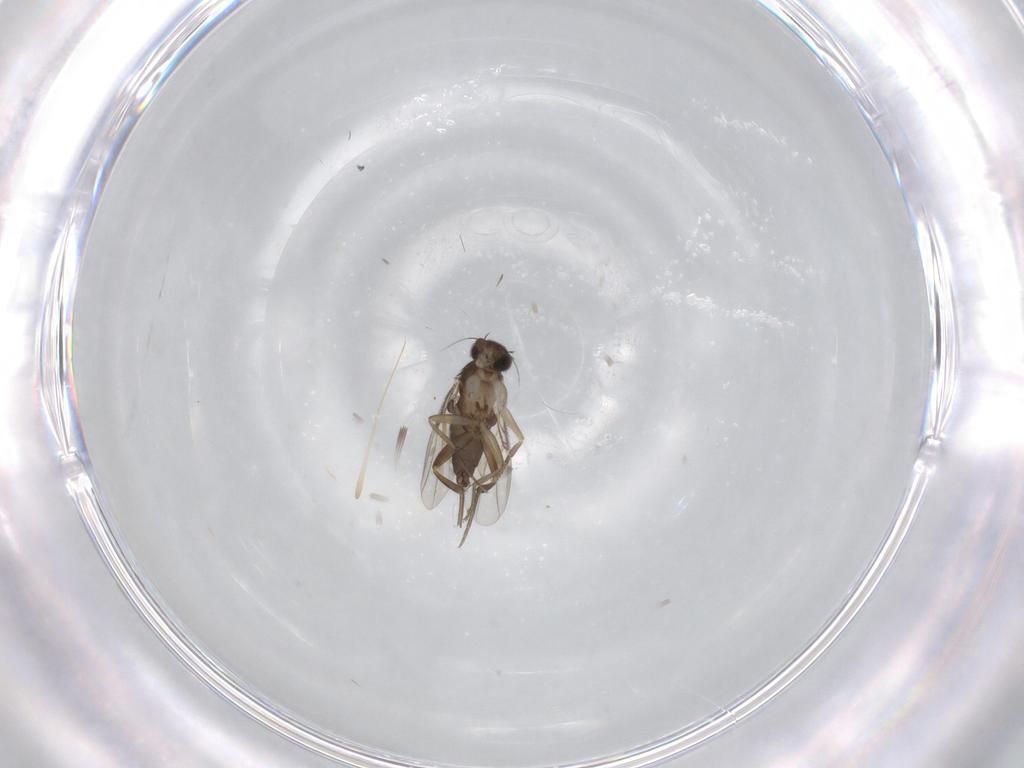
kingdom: Animalia
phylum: Arthropoda
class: Insecta
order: Diptera
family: Phoridae
